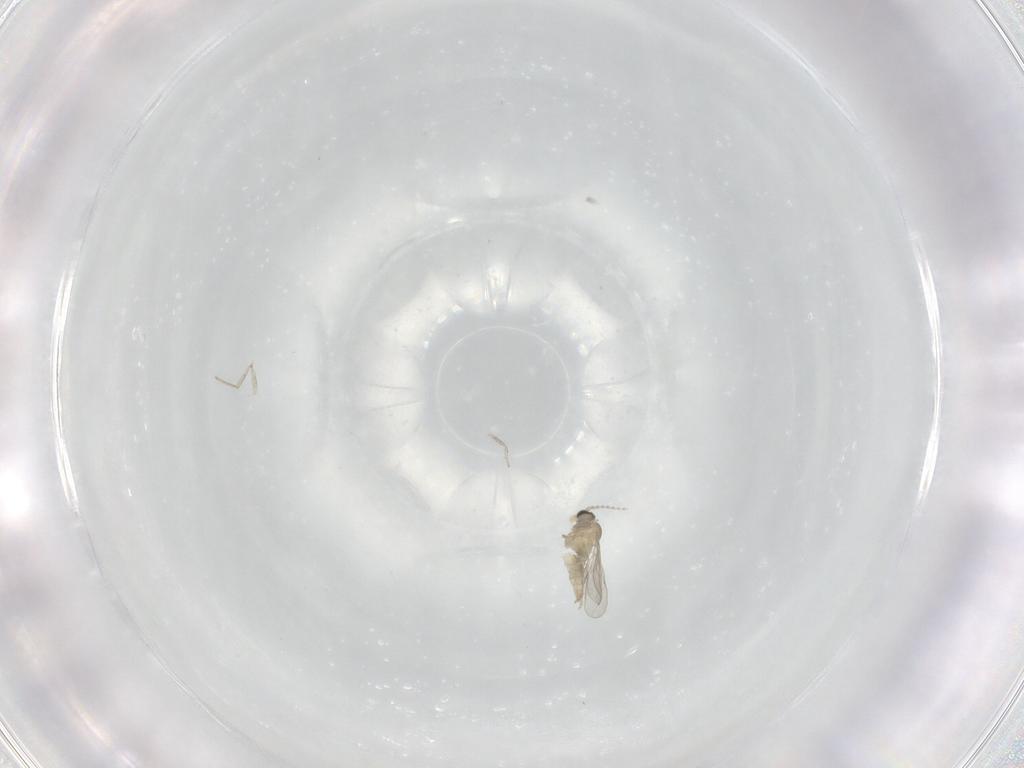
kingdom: Animalia
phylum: Arthropoda
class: Insecta
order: Diptera
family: Cecidomyiidae
